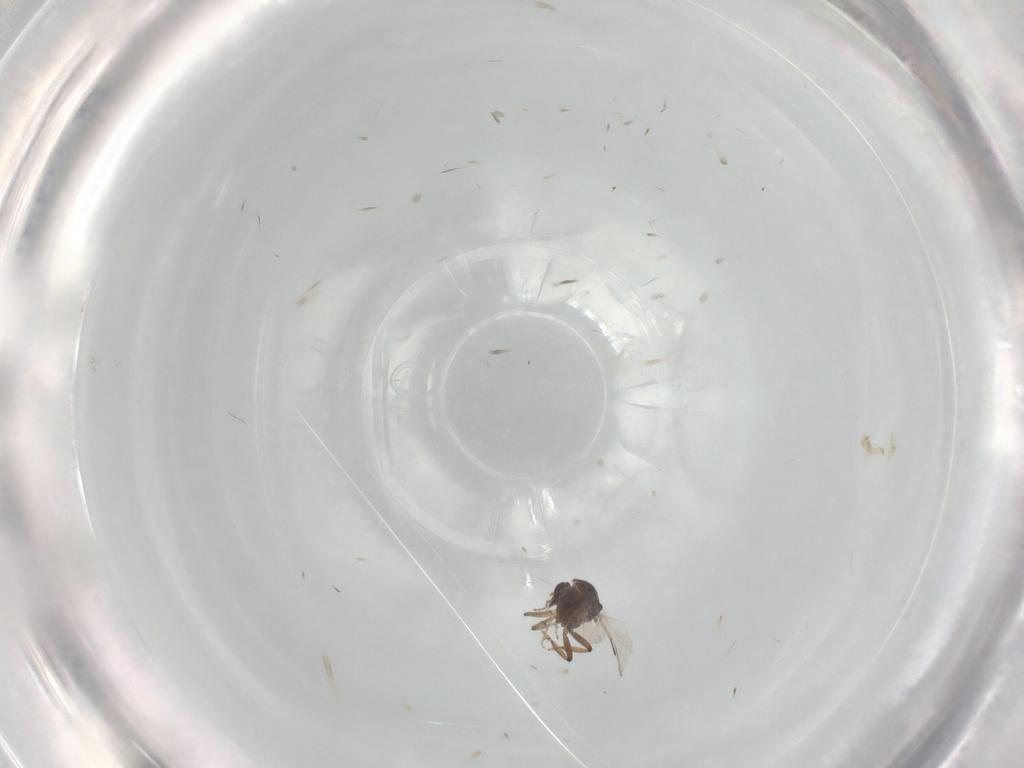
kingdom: Animalia
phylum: Arthropoda
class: Insecta
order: Diptera
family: Ceratopogonidae
